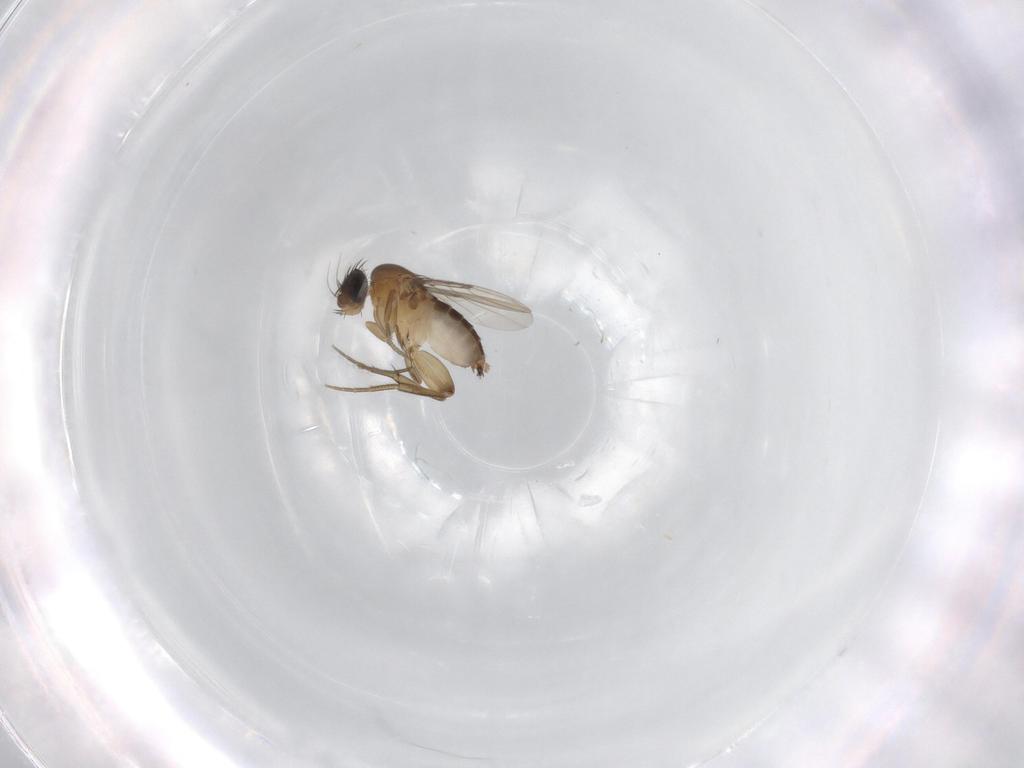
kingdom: Animalia
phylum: Arthropoda
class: Insecta
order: Diptera
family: Phoridae
